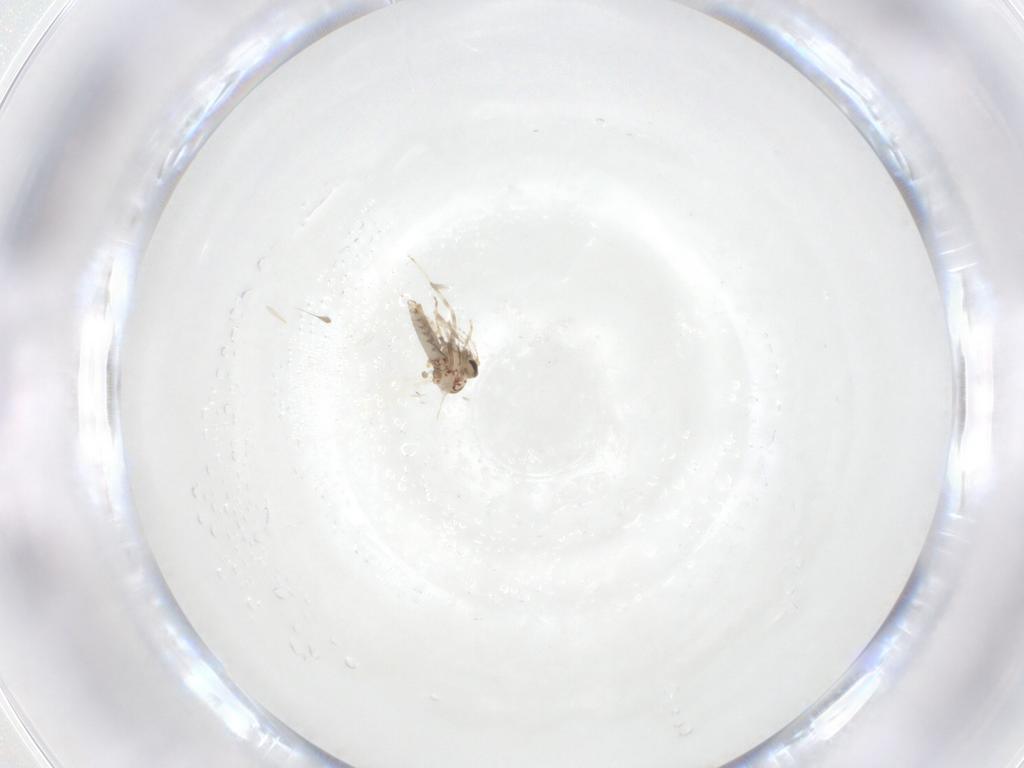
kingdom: Animalia
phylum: Arthropoda
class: Insecta
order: Diptera
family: Ceratopogonidae
